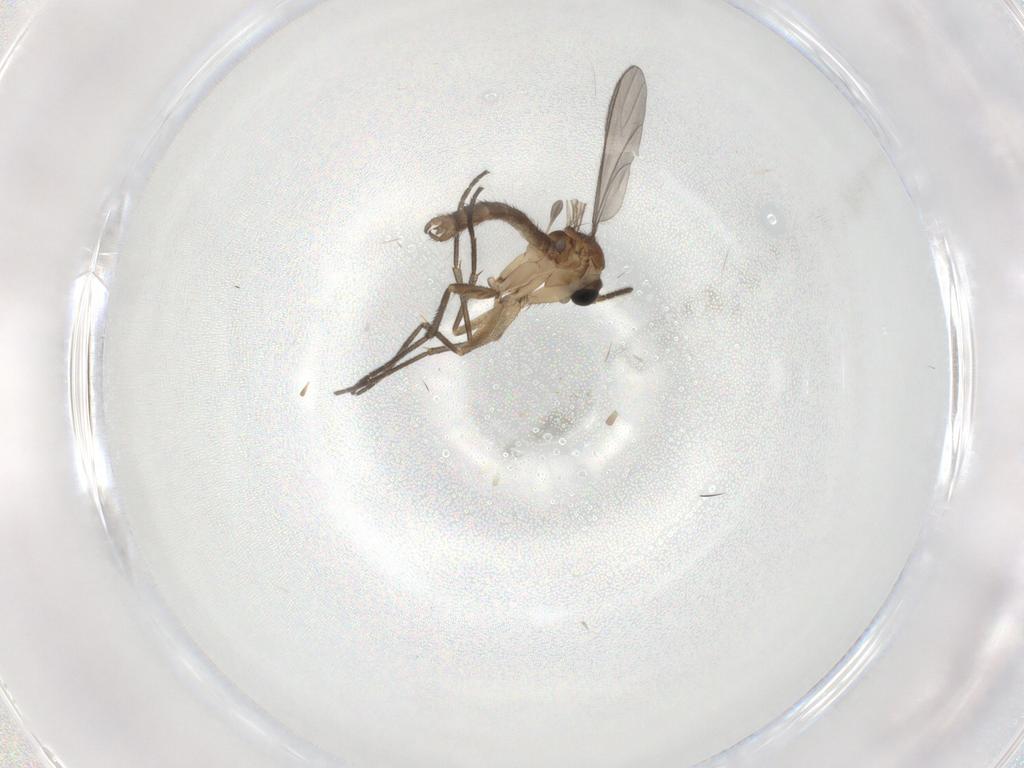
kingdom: Animalia
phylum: Arthropoda
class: Insecta
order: Diptera
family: Sciaridae
